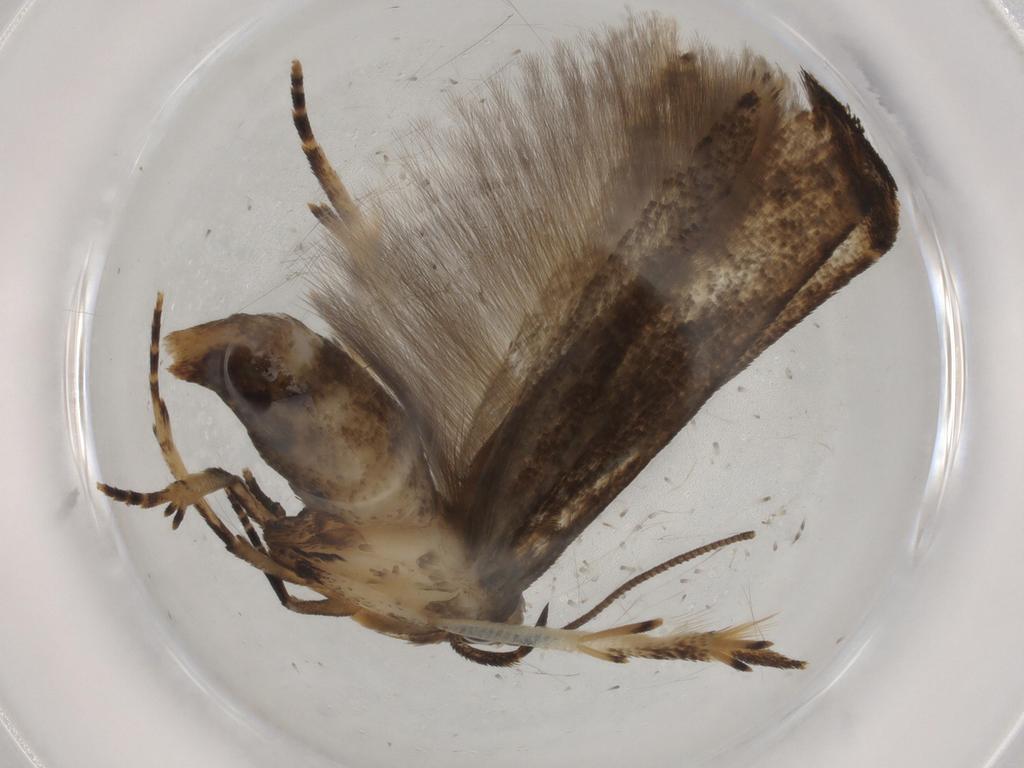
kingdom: Animalia
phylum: Arthropoda
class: Insecta
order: Lepidoptera
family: Cosmopterigidae
